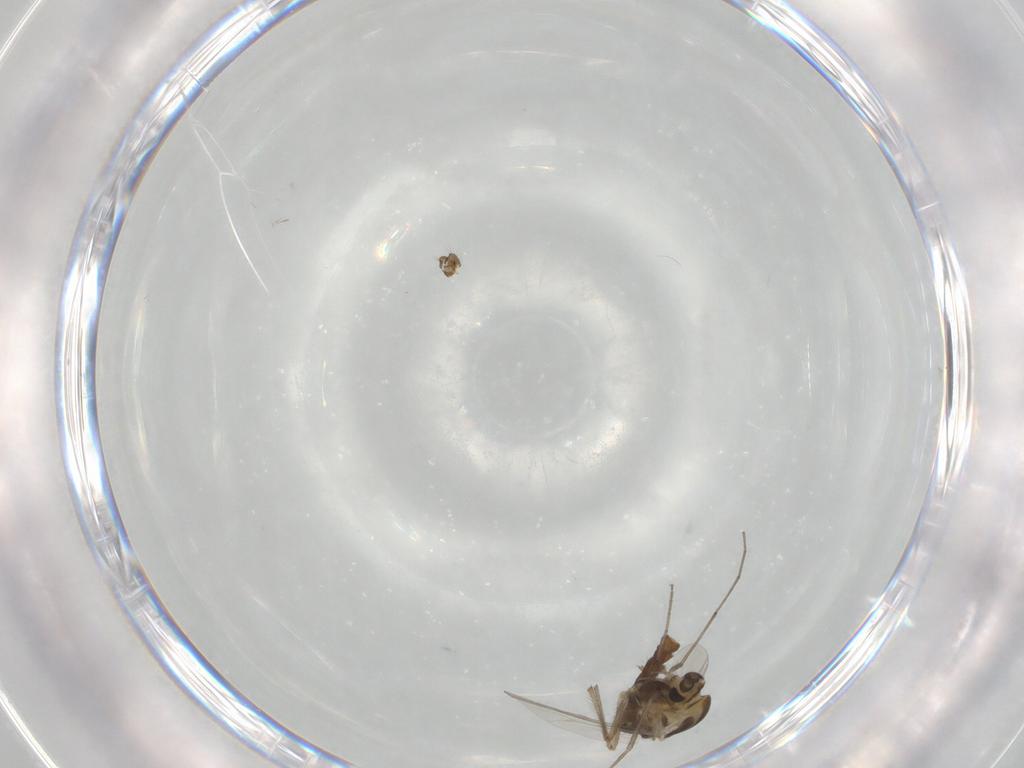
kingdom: Animalia
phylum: Arthropoda
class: Insecta
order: Diptera
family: Chironomidae
